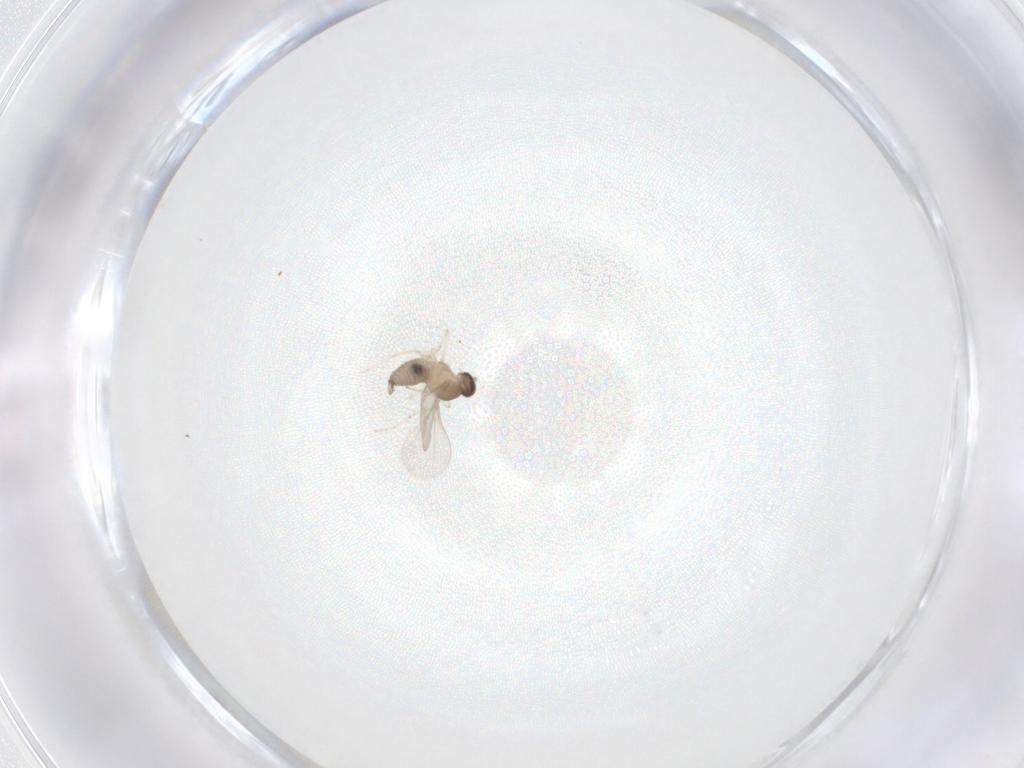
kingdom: Animalia
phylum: Arthropoda
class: Insecta
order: Diptera
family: Cecidomyiidae
